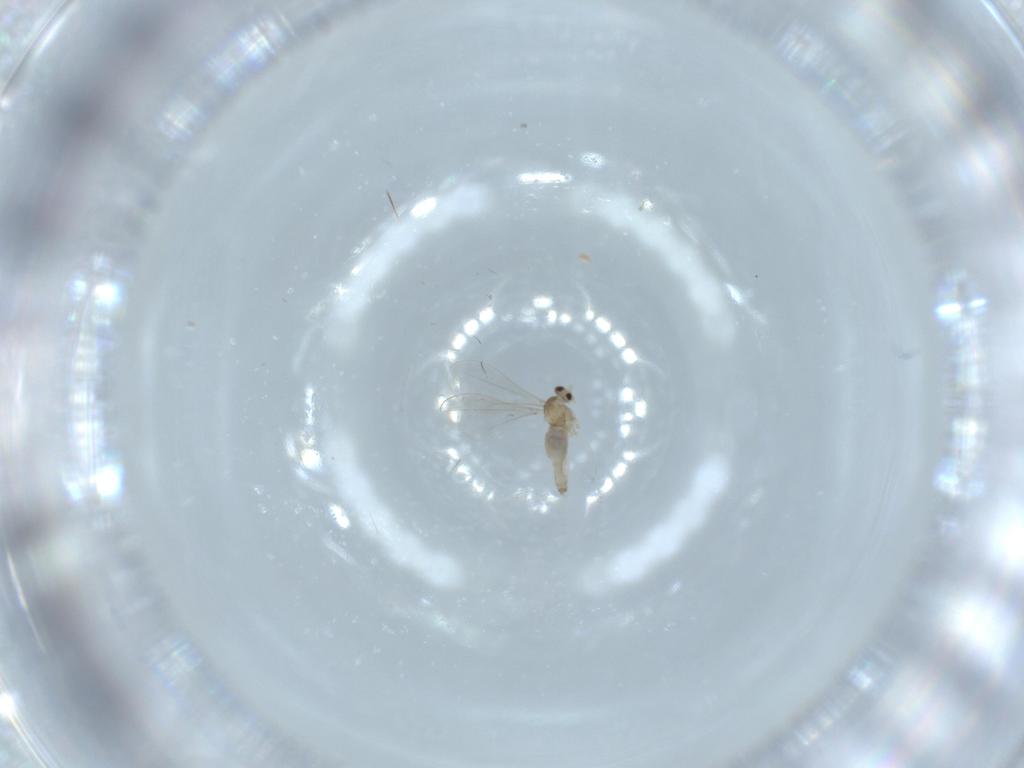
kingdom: Animalia
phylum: Arthropoda
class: Insecta
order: Diptera
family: Cecidomyiidae
